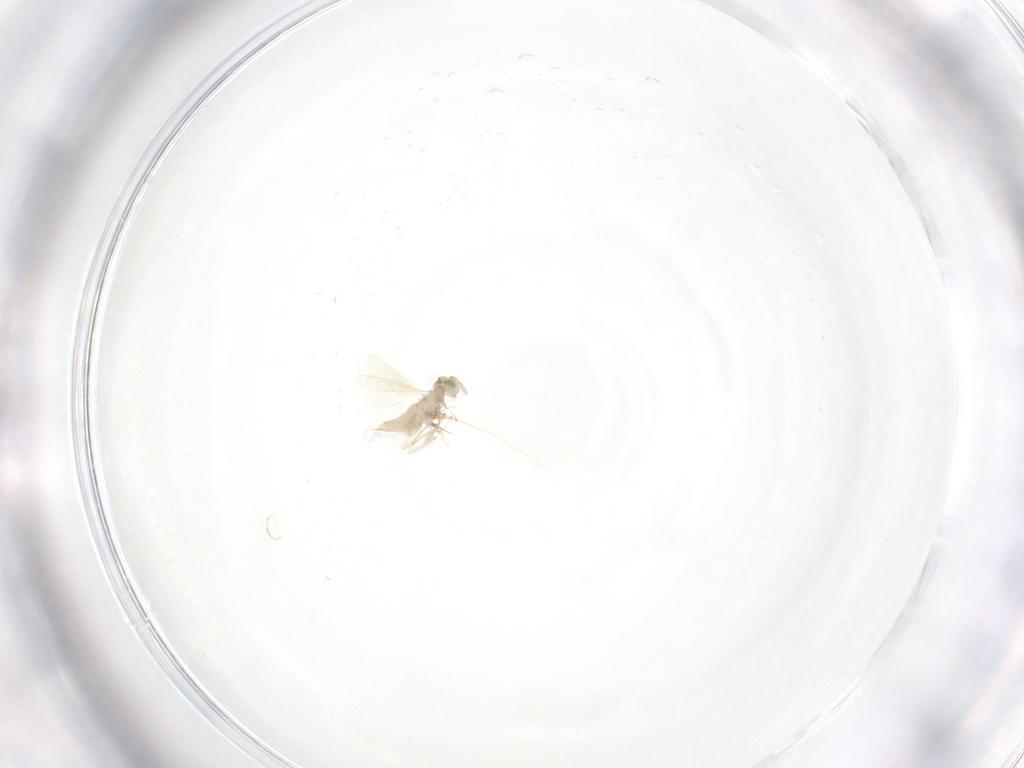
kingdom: Animalia
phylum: Arthropoda
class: Insecta
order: Hymenoptera
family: Aphelinidae
